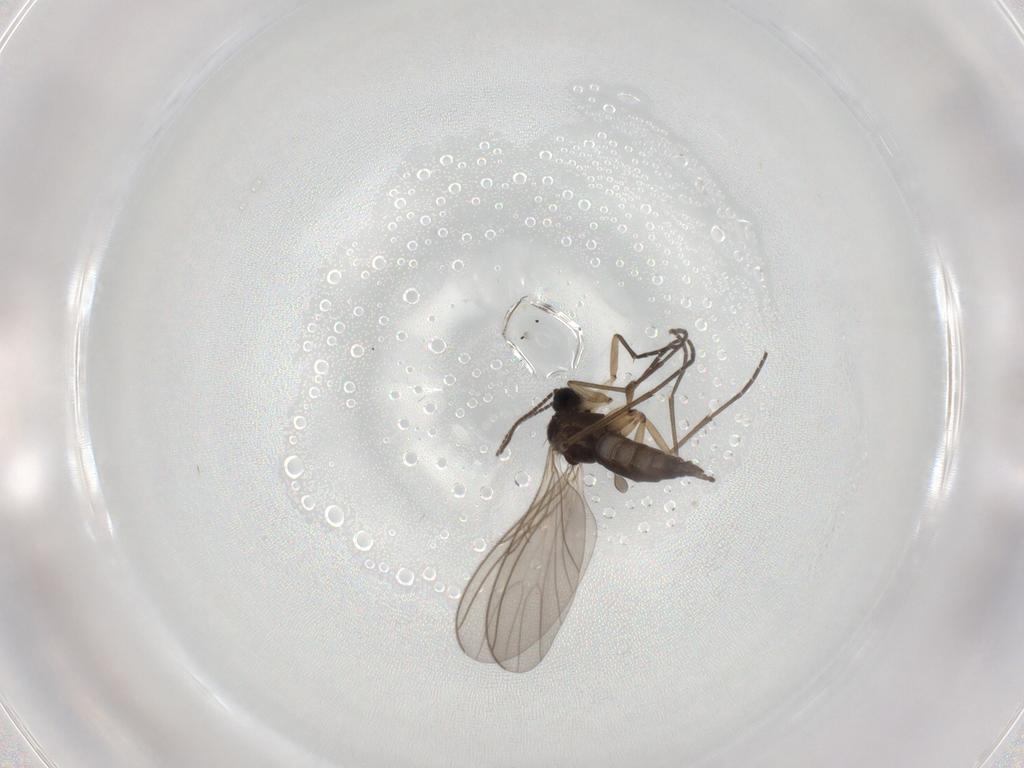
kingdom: Animalia
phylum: Arthropoda
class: Insecta
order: Diptera
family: Sciaridae
